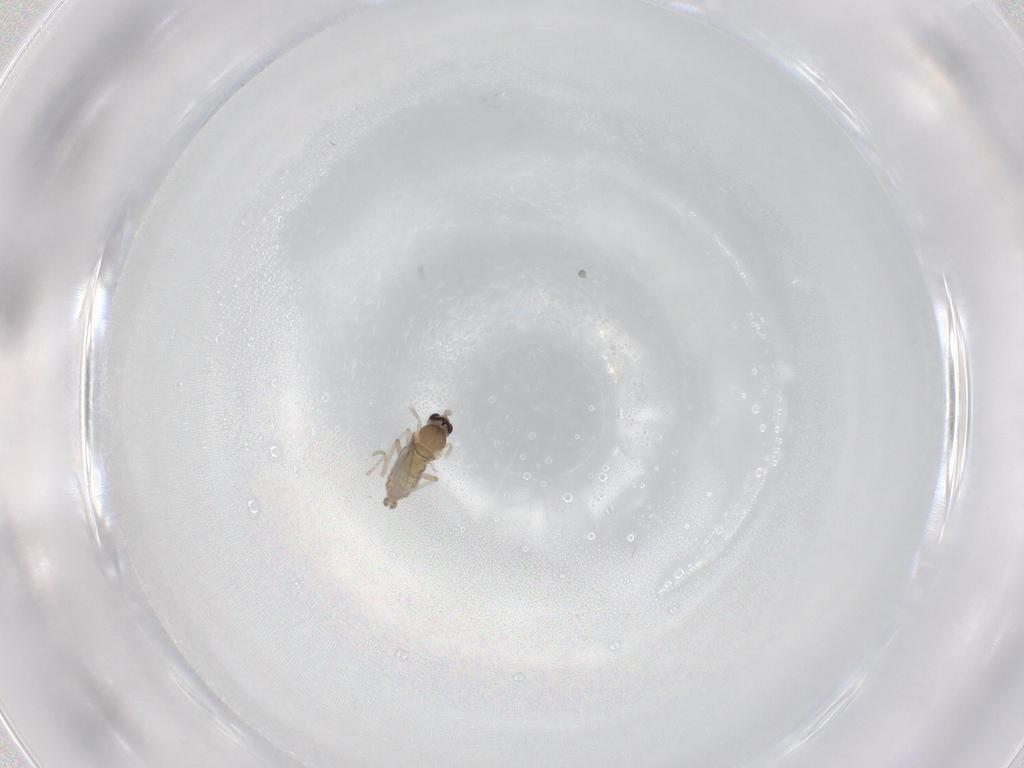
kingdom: Animalia
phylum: Arthropoda
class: Insecta
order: Diptera
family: Cecidomyiidae
